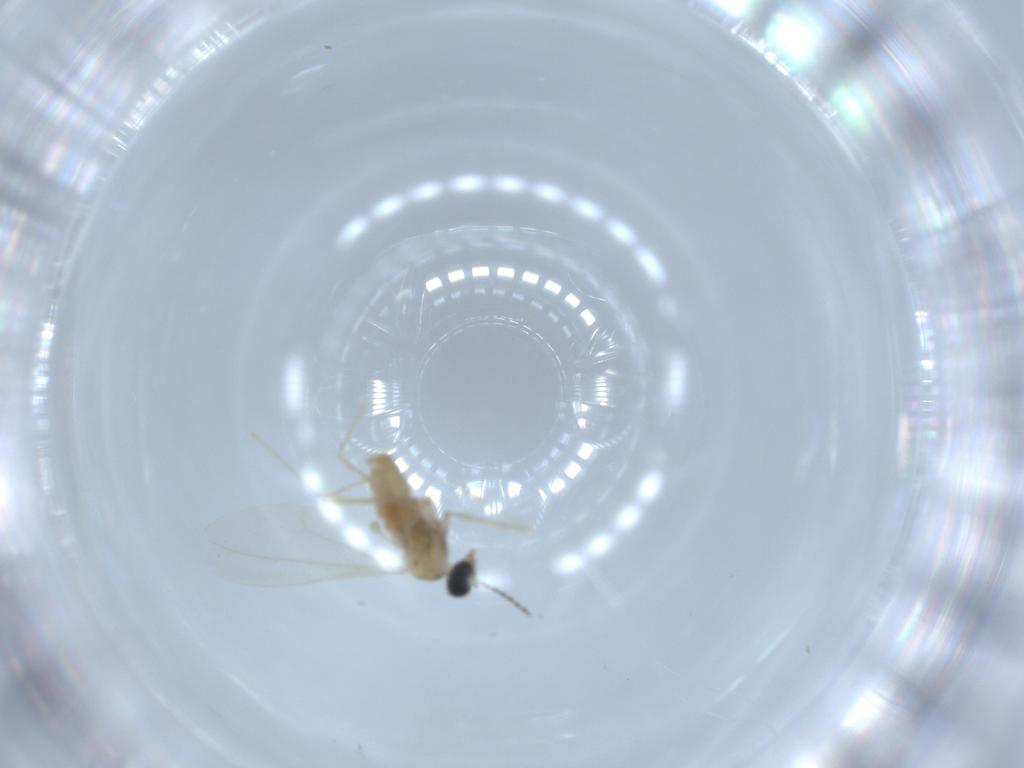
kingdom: Animalia
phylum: Arthropoda
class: Insecta
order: Diptera
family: Cecidomyiidae
